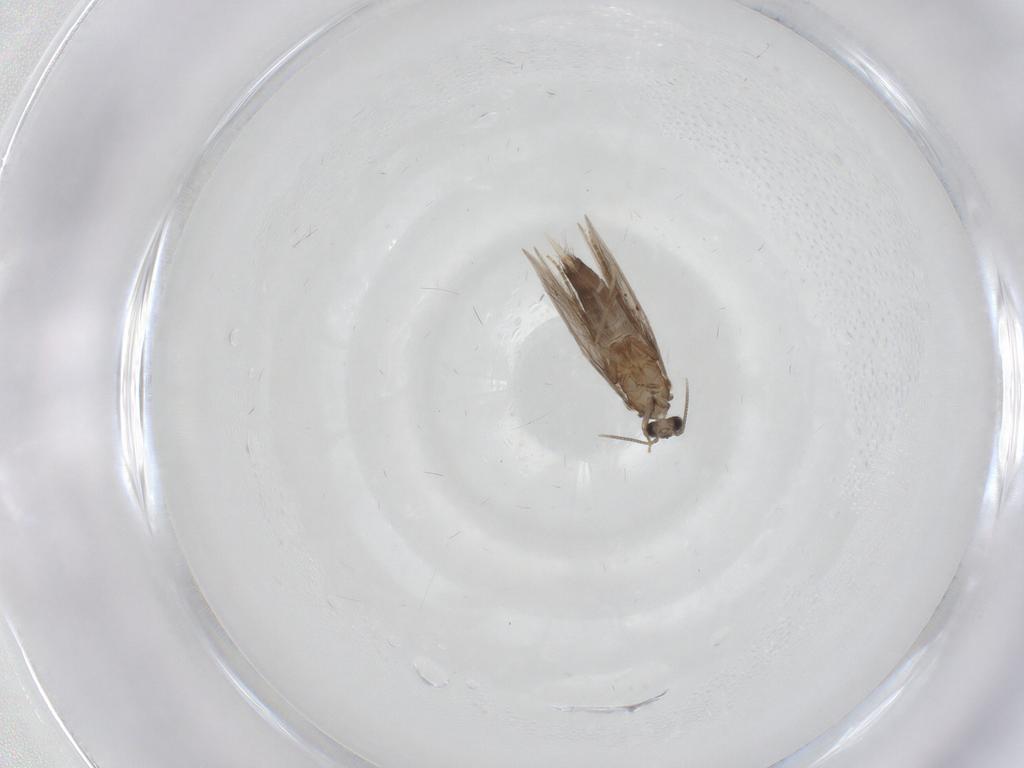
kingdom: Animalia
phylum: Arthropoda
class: Insecta
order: Trichoptera
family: Hydroptilidae
